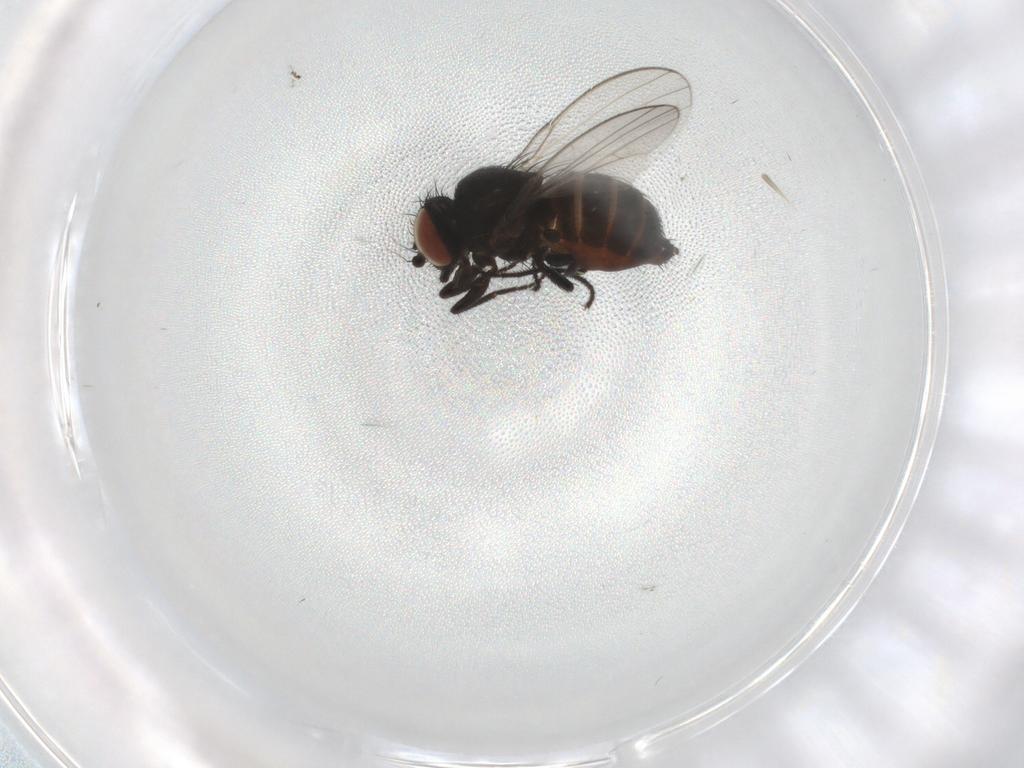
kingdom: Animalia
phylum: Arthropoda
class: Insecta
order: Diptera
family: Milichiidae
